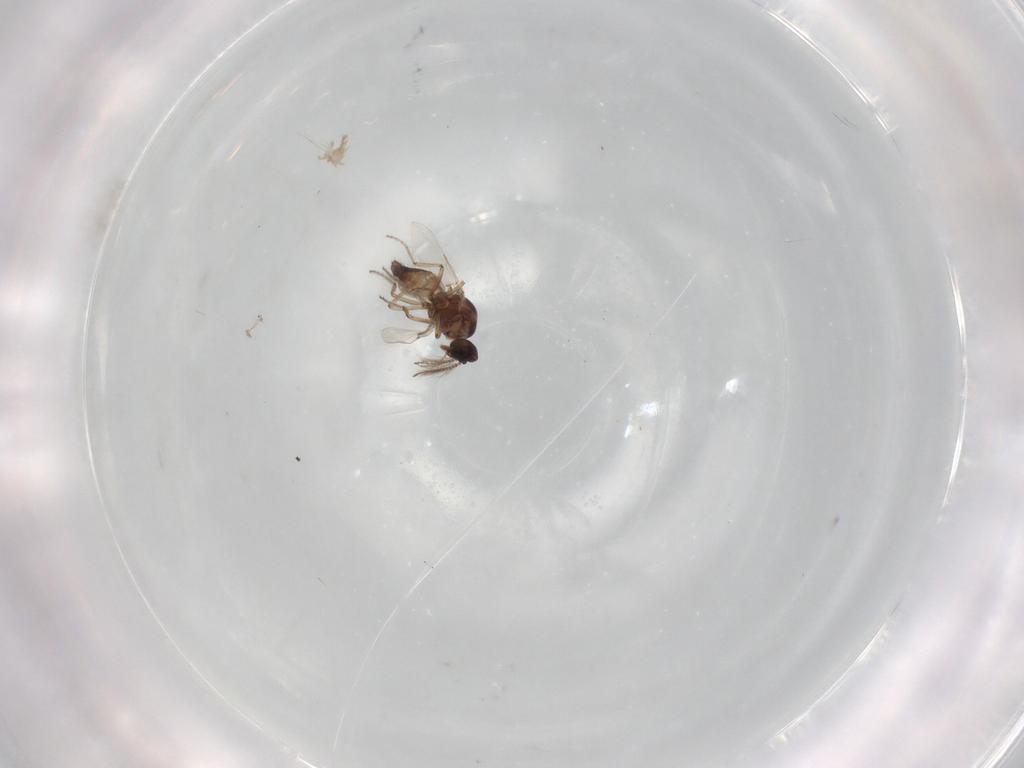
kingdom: Animalia
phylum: Arthropoda
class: Insecta
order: Diptera
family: Ceratopogonidae
